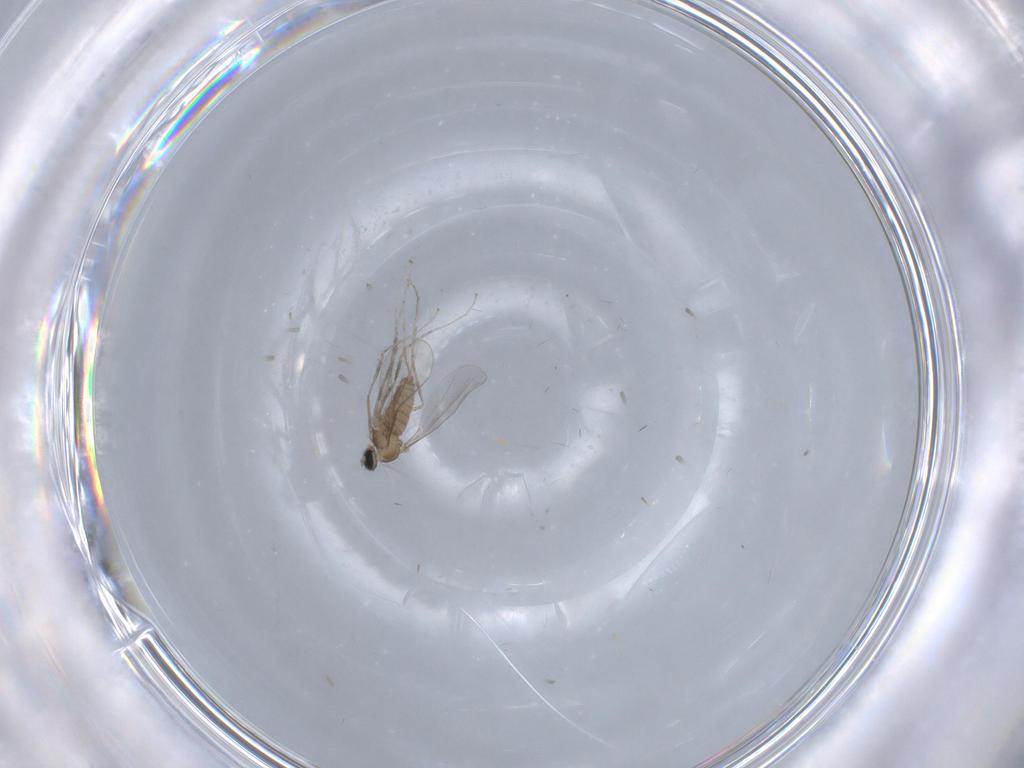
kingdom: Animalia
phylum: Arthropoda
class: Insecta
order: Diptera
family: Cecidomyiidae
